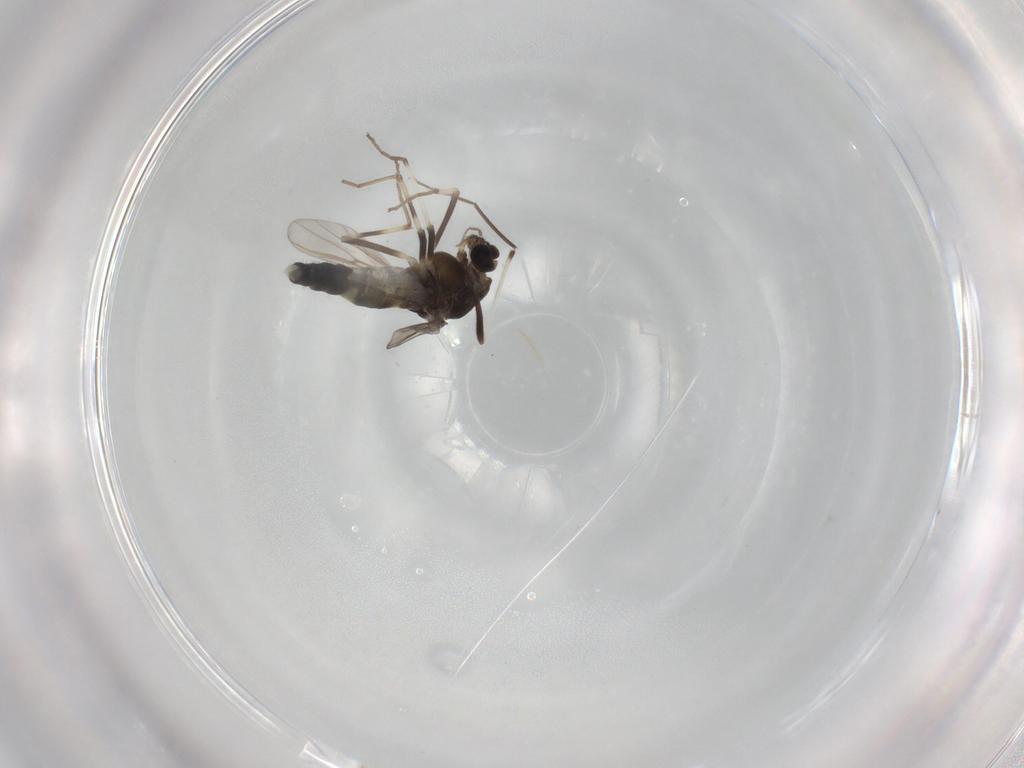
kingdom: Animalia
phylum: Arthropoda
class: Insecta
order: Diptera
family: Chironomidae
